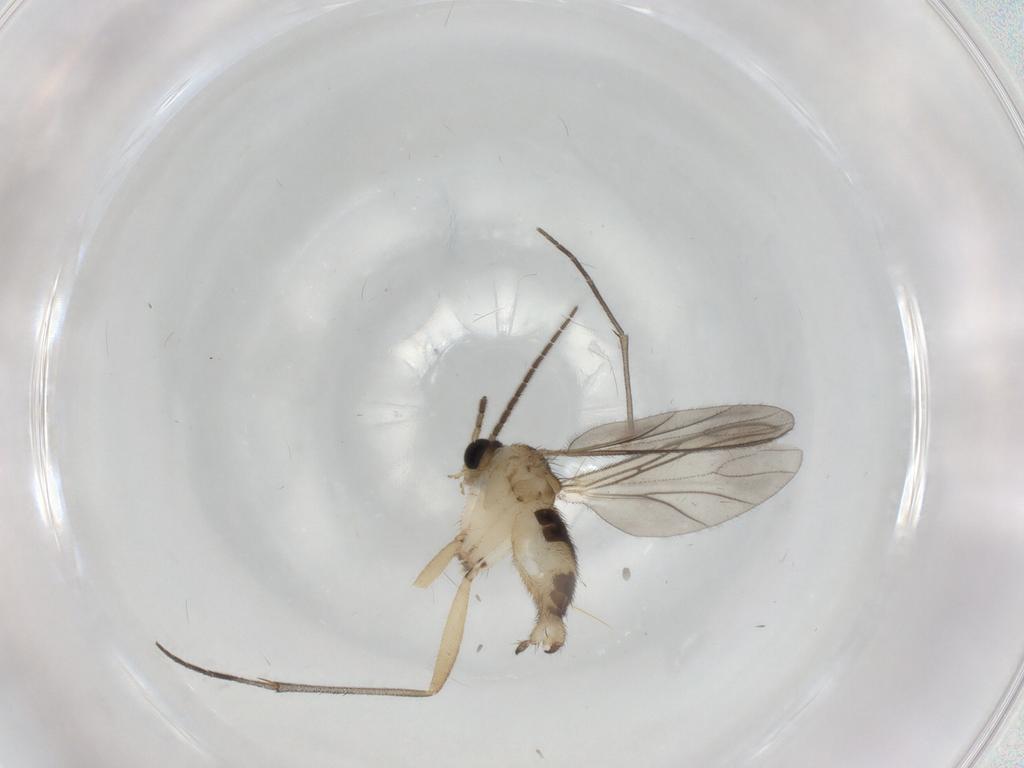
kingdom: Animalia
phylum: Arthropoda
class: Insecta
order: Diptera
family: Sciaridae
